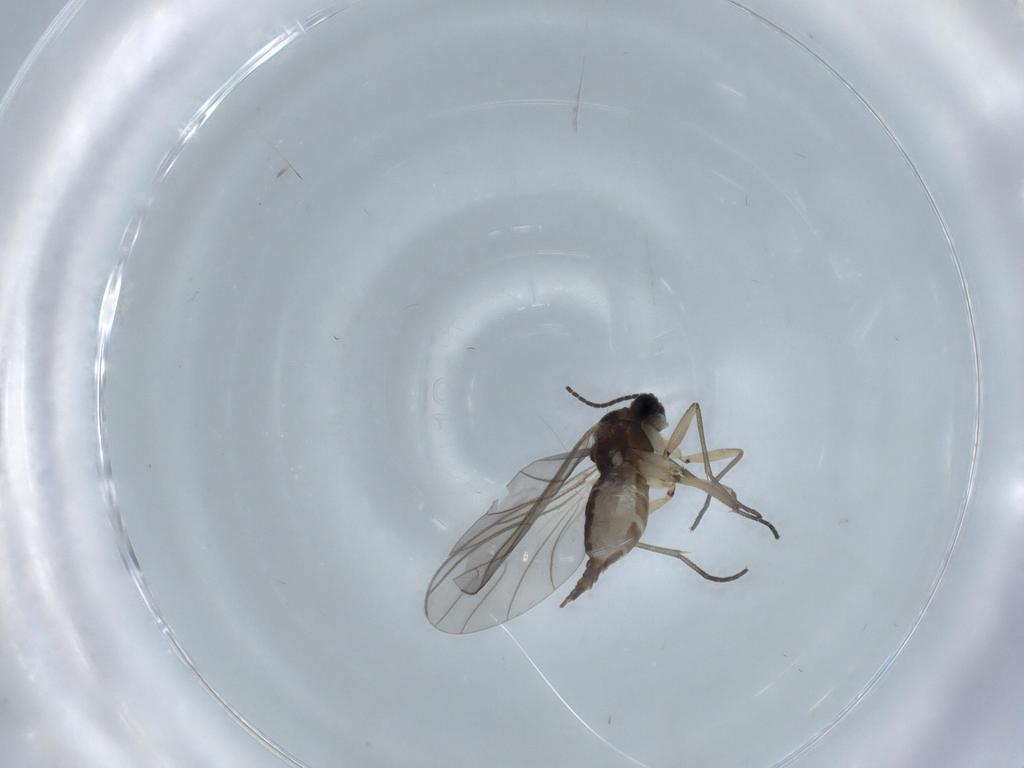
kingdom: Animalia
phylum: Arthropoda
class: Insecta
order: Diptera
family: Sciaridae
